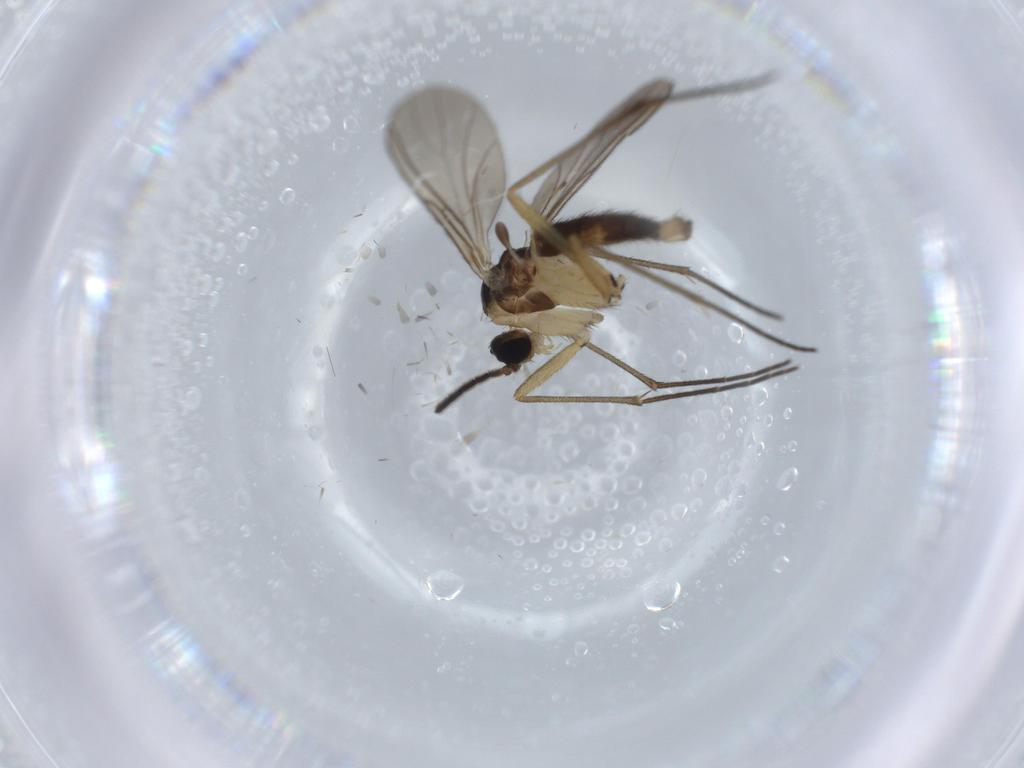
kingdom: Animalia
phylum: Arthropoda
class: Insecta
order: Diptera
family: Sciaridae
